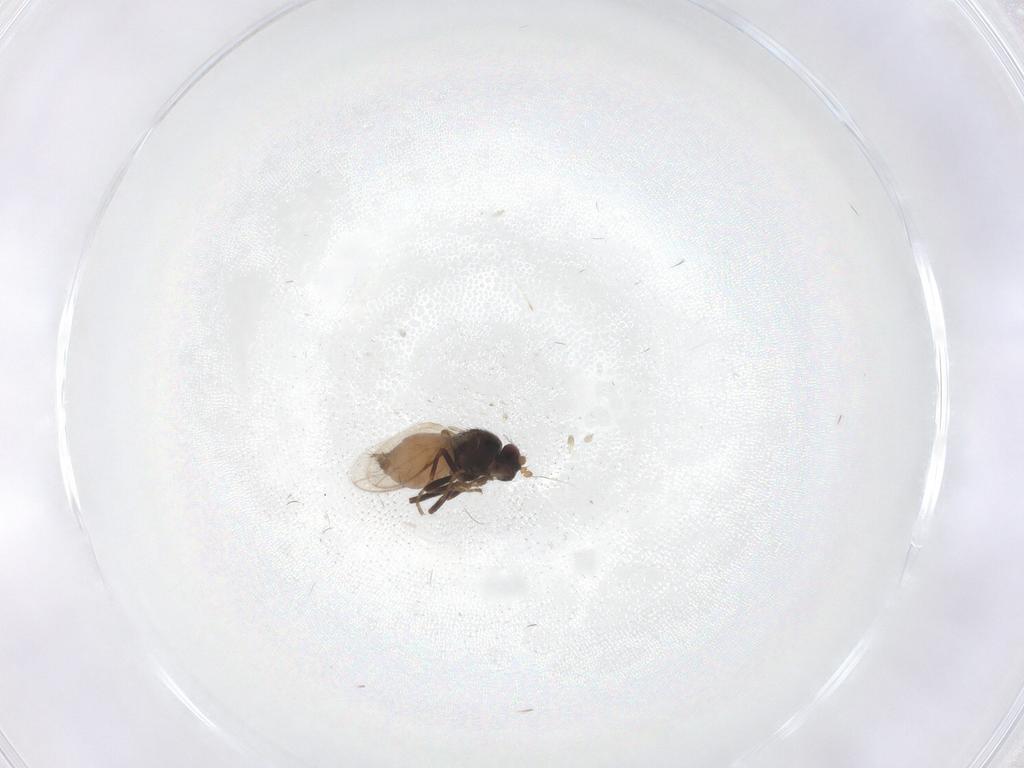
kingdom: Animalia
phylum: Arthropoda
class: Insecta
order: Diptera
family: Sphaeroceridae
